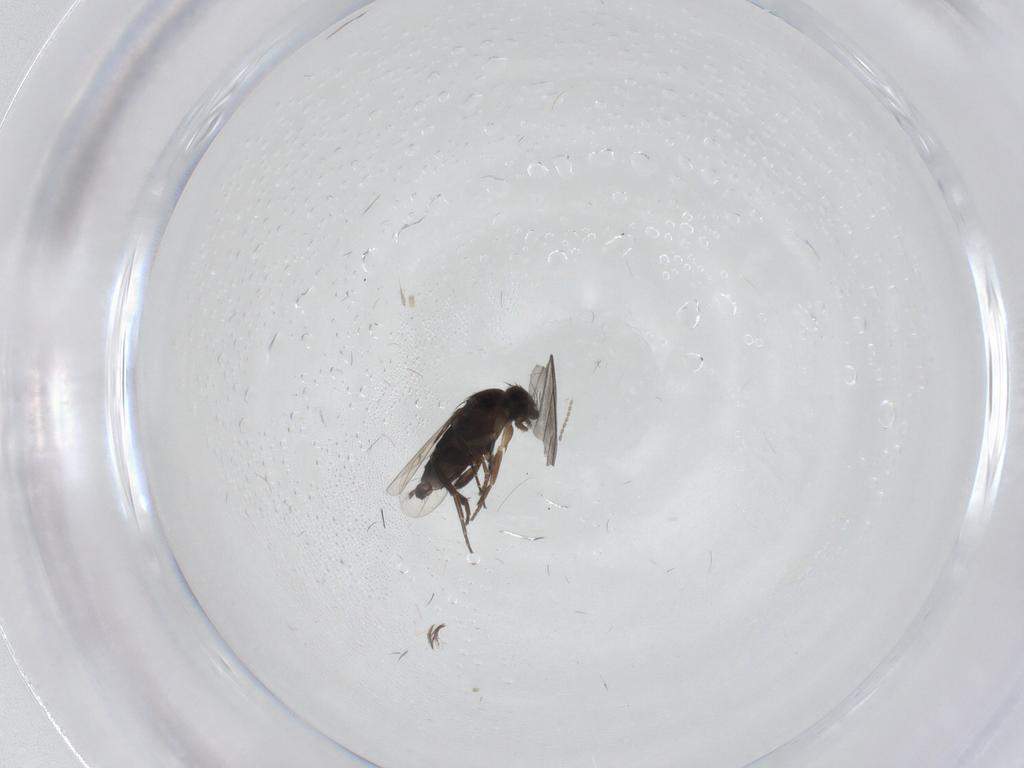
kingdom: Animalia
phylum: Arthropoda
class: Insecta
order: Diptera
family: Phoridae
